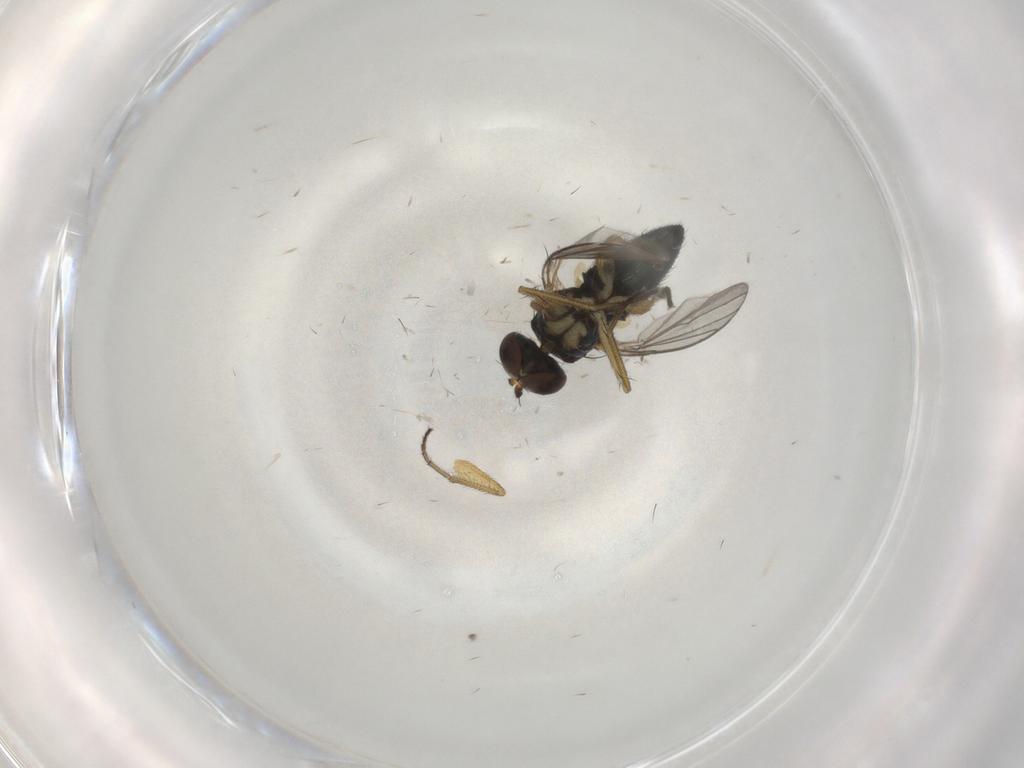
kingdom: Animalia
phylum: Arthropoda
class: Insecta
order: Diptera
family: Dolichopodidae
